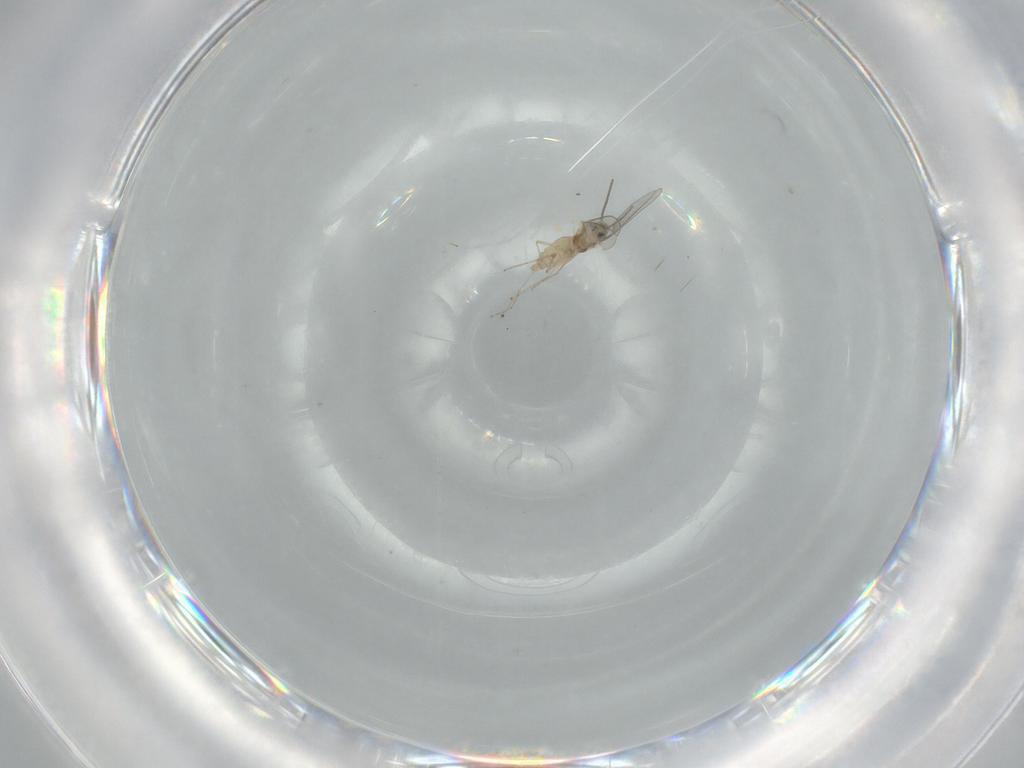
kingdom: Animalia
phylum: Arthropoda
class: Insecta
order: Diptera
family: Cecidomyiidae
